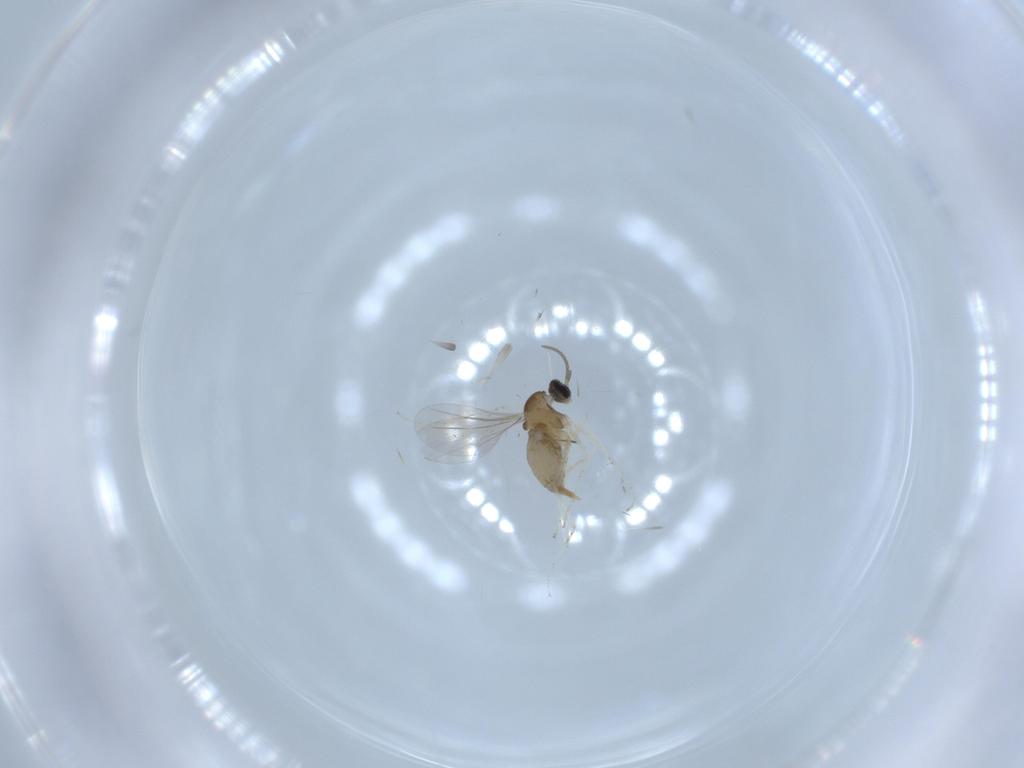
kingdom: Animalia
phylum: Arthropoda
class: Insecta
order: Diptera
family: Cecidomyiidae
